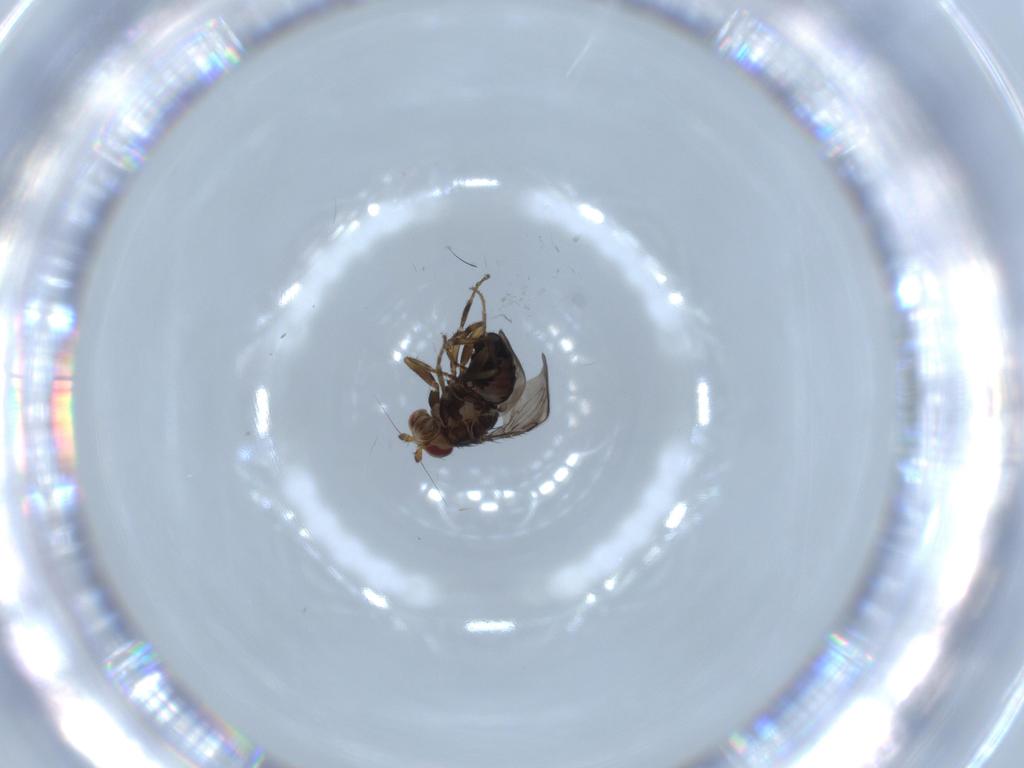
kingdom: Animalia
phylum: Arthropoda
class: Insecta
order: Diptera
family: Sphaeroceridae
